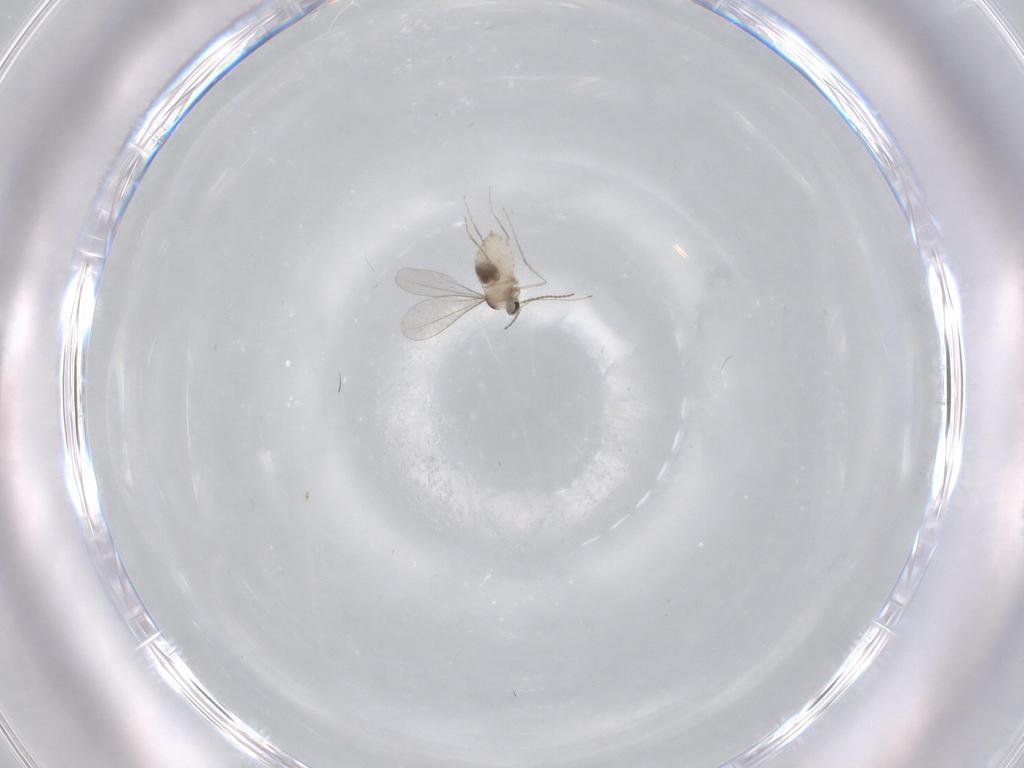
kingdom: Animalia
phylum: Arthropoda
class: Insecta
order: Diptera
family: Cecidomyiidae
